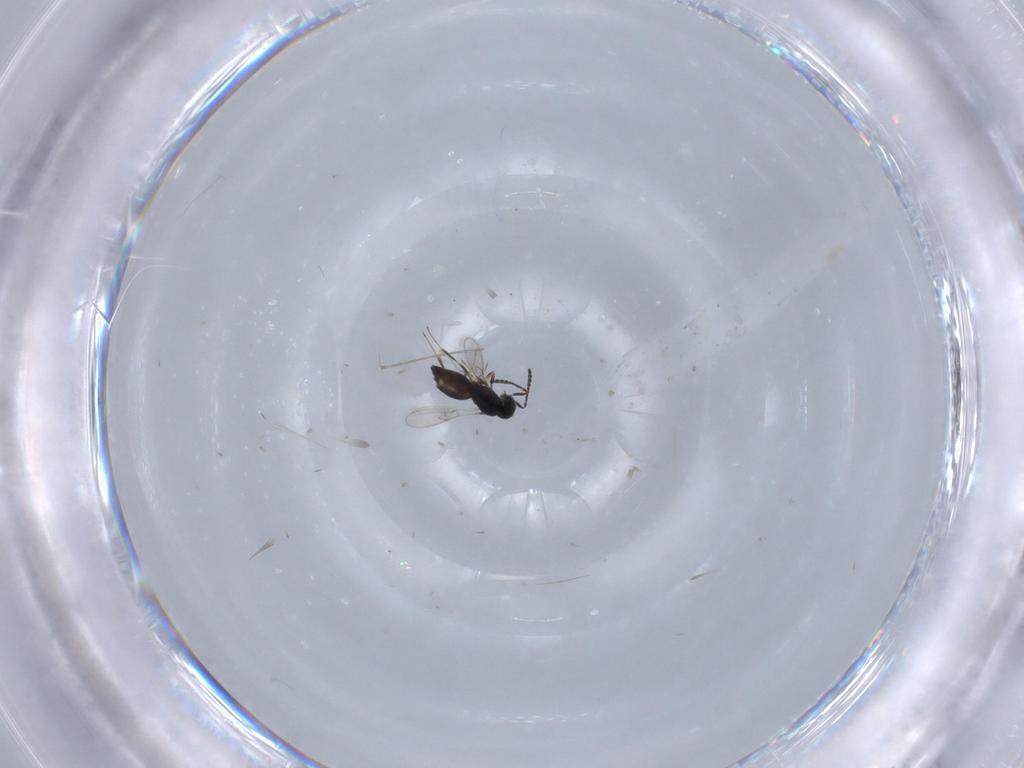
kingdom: Animalia
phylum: Arthropoda
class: Insecta
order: Hymenoptera
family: Scelionidae
